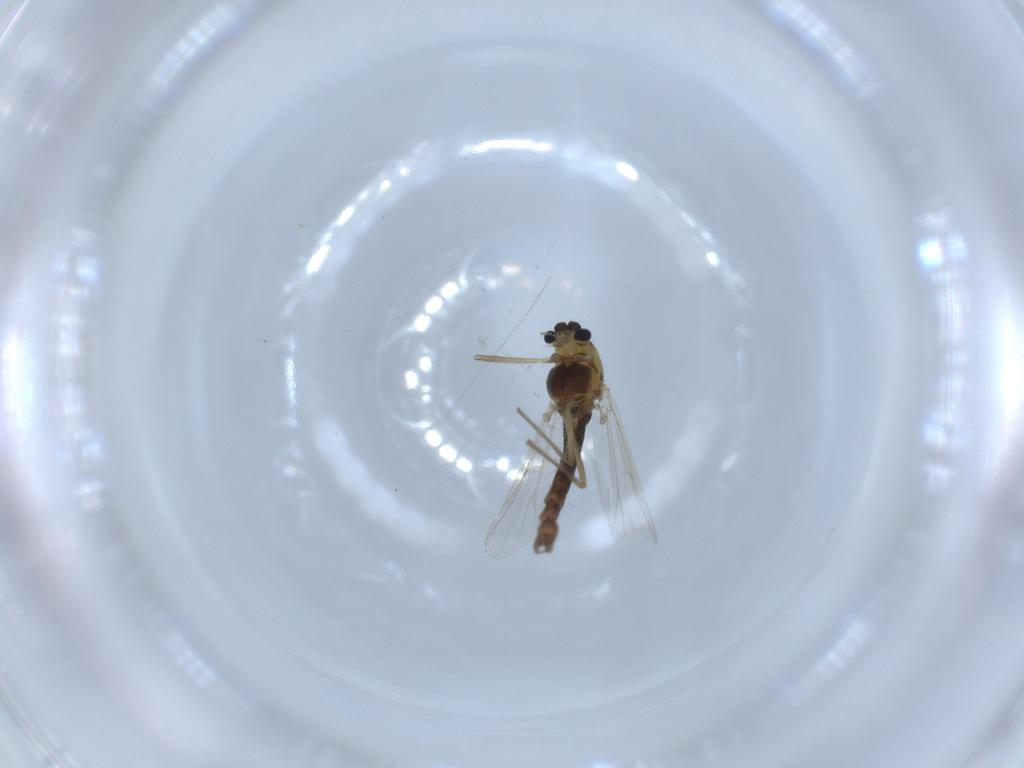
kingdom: Animalia
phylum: Arthropoda
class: Insecta
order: Diptera
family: Chironomidae
